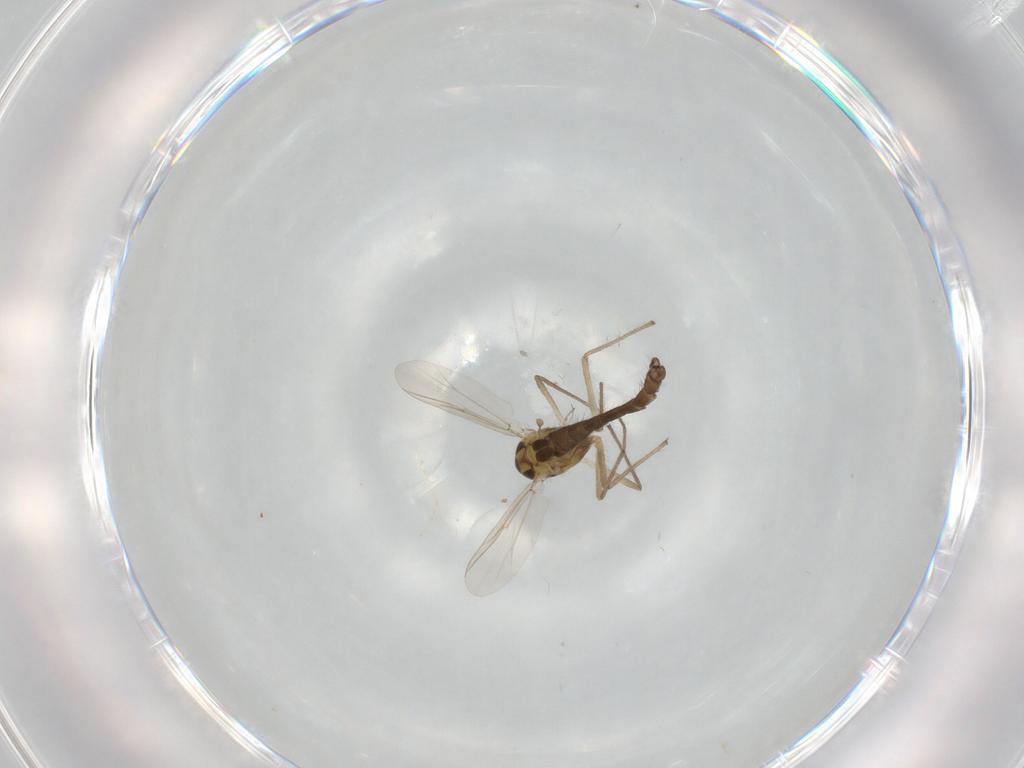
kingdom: Animalia
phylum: Arthropoda
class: Insecta
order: Diptera
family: Chironomidae
